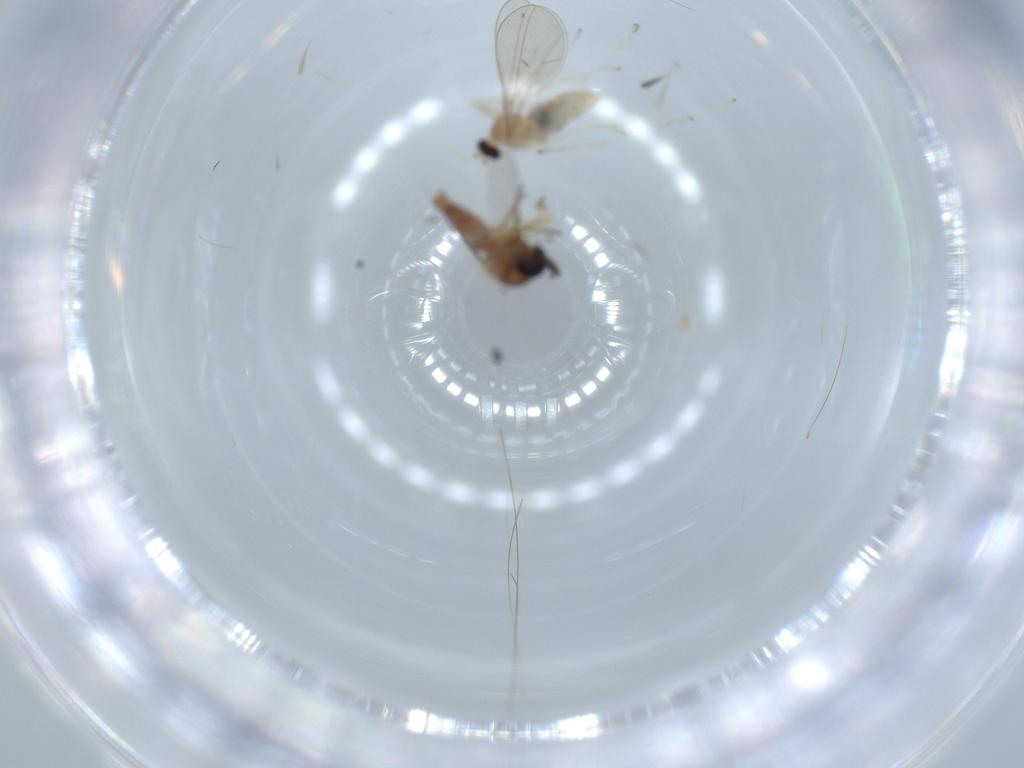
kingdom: Animalia
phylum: Arthropoda
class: Insecta
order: Diptera
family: Ceratopogonidae
